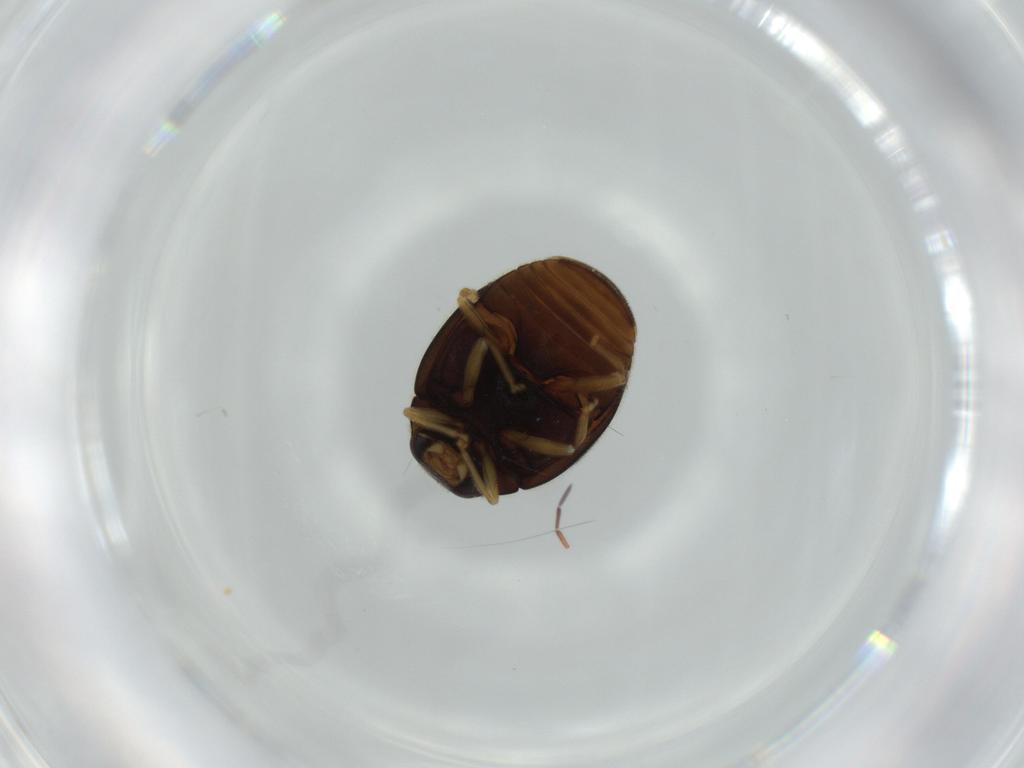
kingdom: Animalia
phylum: Arthropoda
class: Insecta
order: Coleoptera
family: Coccinellidae
